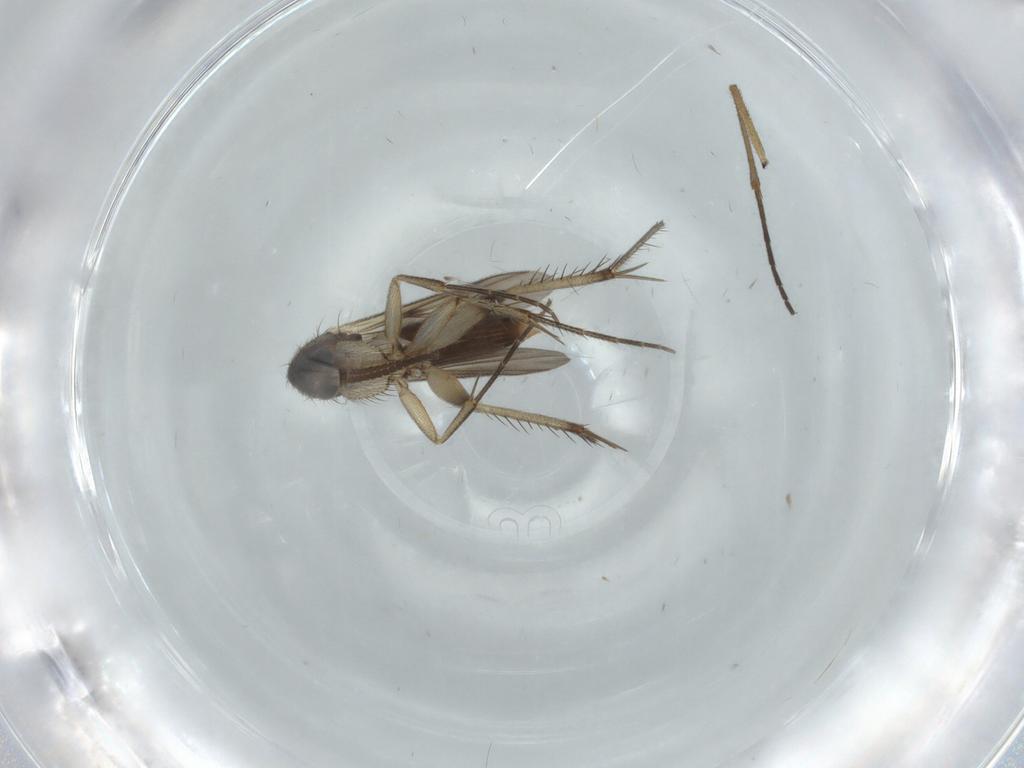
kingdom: Animalia
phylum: Arthropoda
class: Insecta
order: Diptera
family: Mycetophilidae
